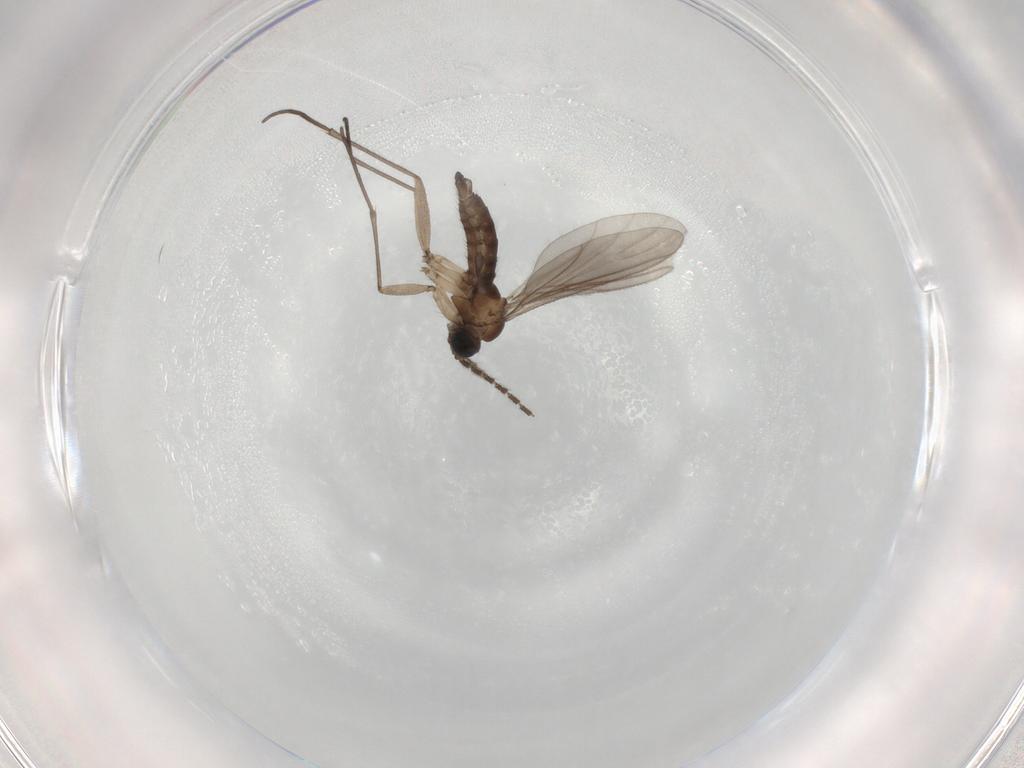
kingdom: Animalia
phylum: Arthropoda
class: Insecta
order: Diptera
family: Sciaridae
